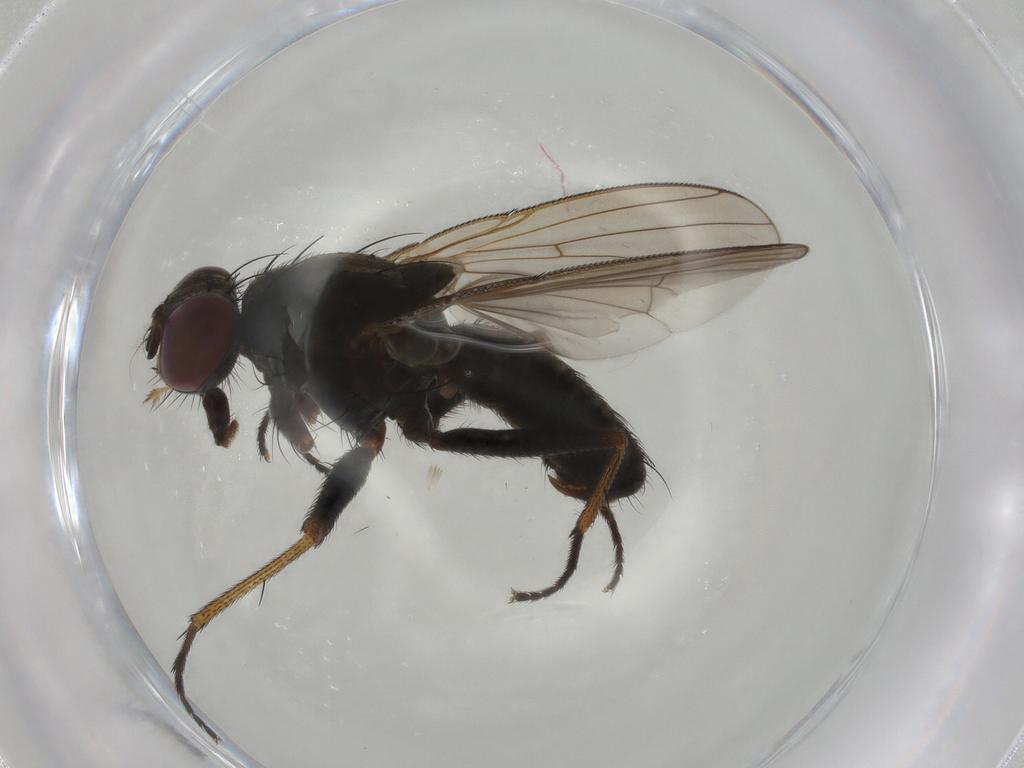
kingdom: Animalia
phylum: Arthropoda
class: Insecta
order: Diptera
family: Muscidae
